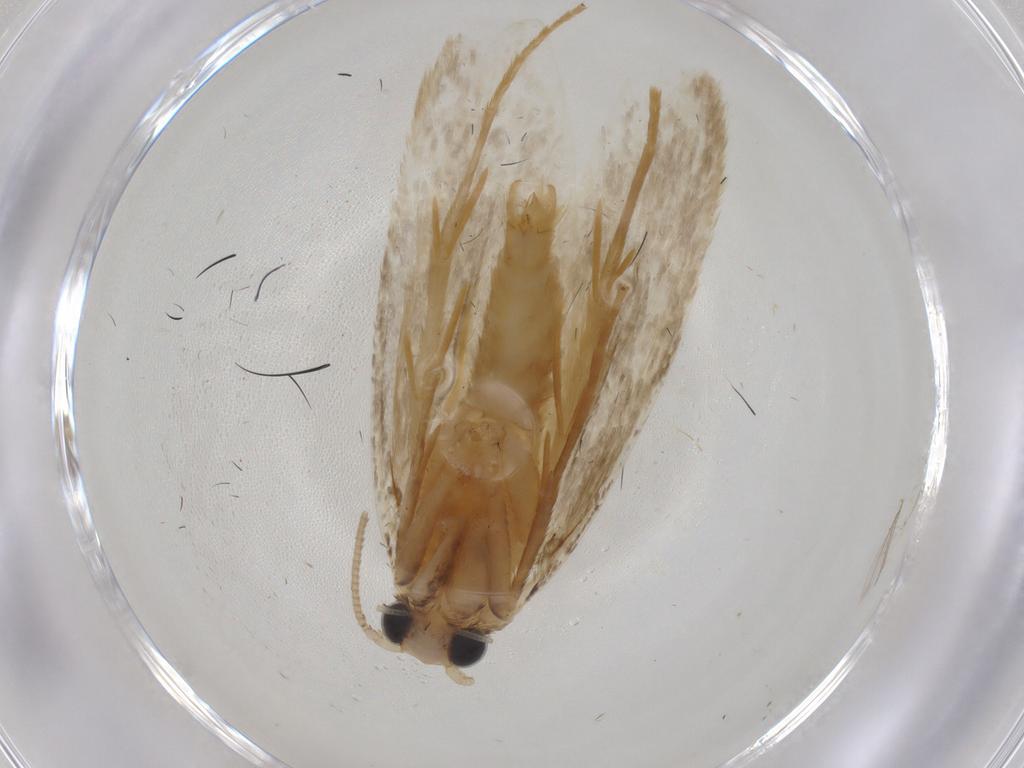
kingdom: Animalia
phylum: Arthropoda
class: Insecta
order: Lepidoptera
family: Tineidae
